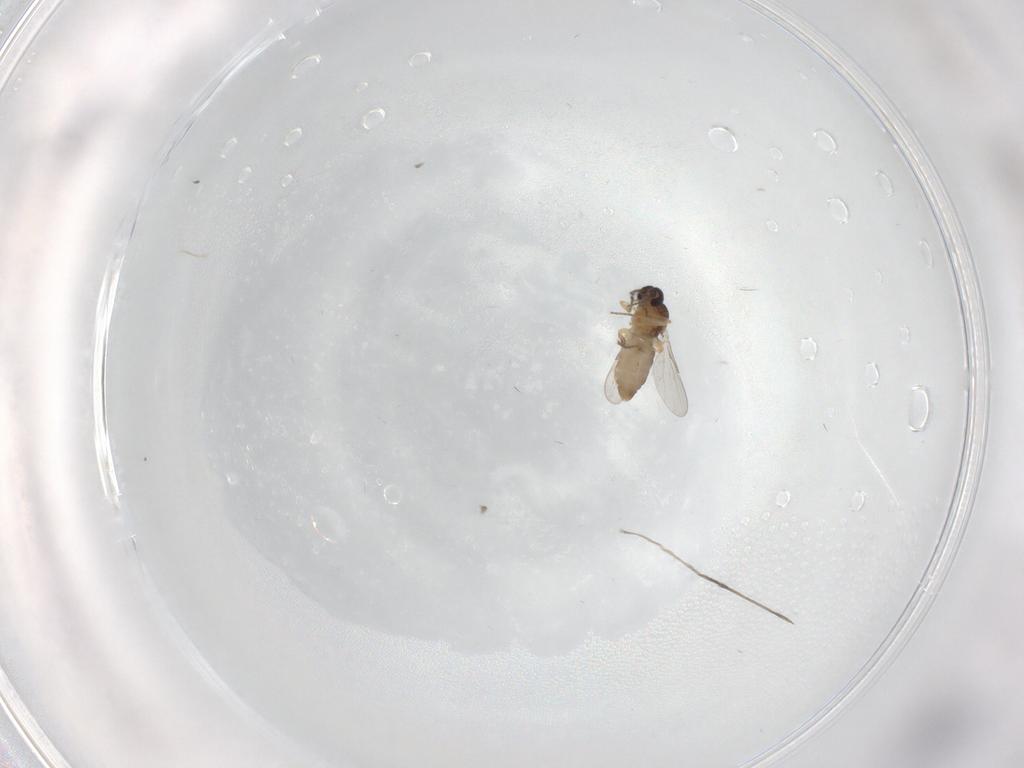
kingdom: Animalia
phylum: Arthropoda
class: Insecta
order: Diptera
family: Ceratopogonidae
